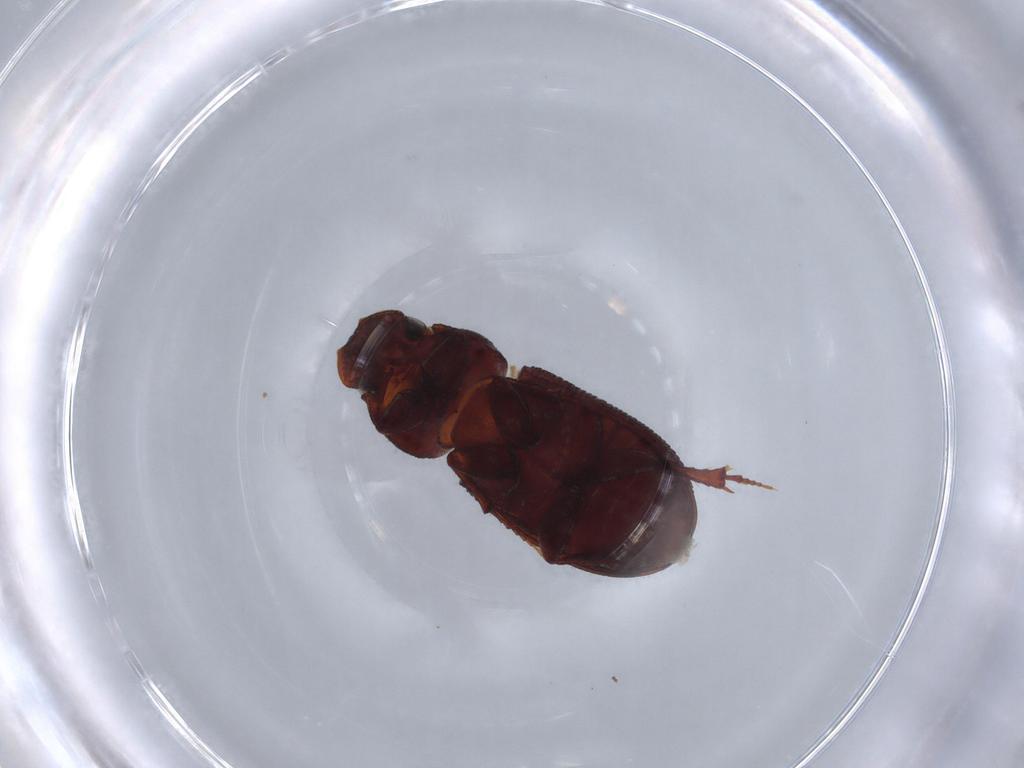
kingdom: Animalia
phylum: Arthropoda
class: Insecta
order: Coleoptera
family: Scarabaeidae
